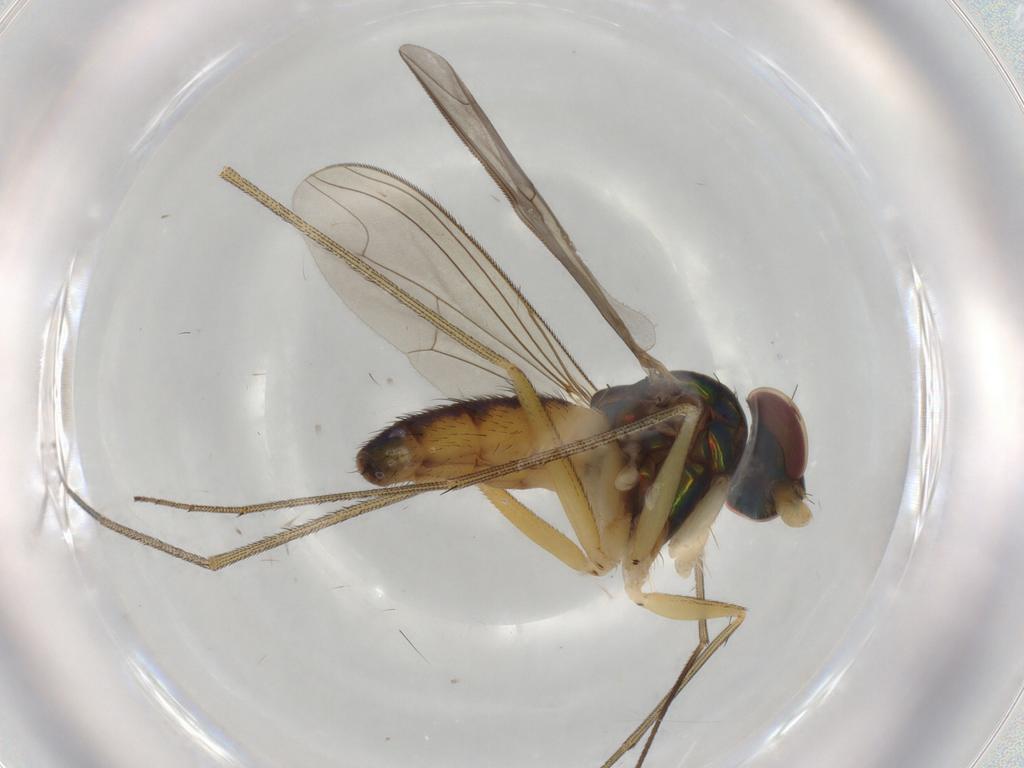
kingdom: Animalia
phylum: Arthropoda
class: Insecta
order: Diptera
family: Dolichopodidae
